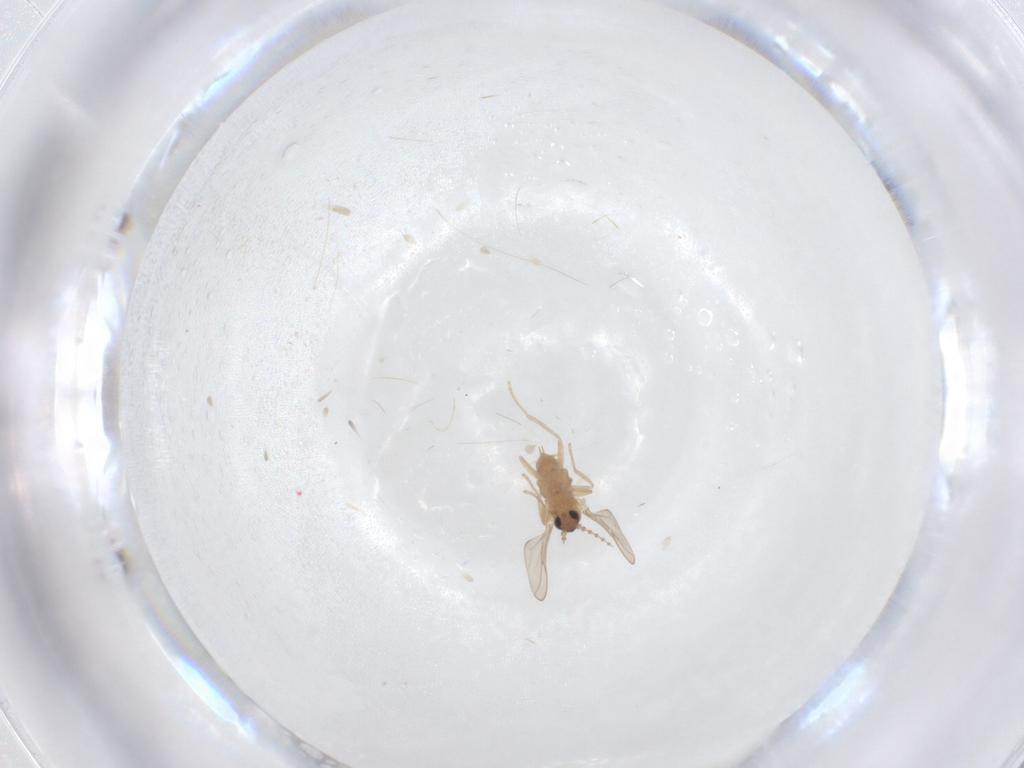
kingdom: Animalia
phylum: Arthropoda
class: Insecta
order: Diptera
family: Cecidomyiidae
